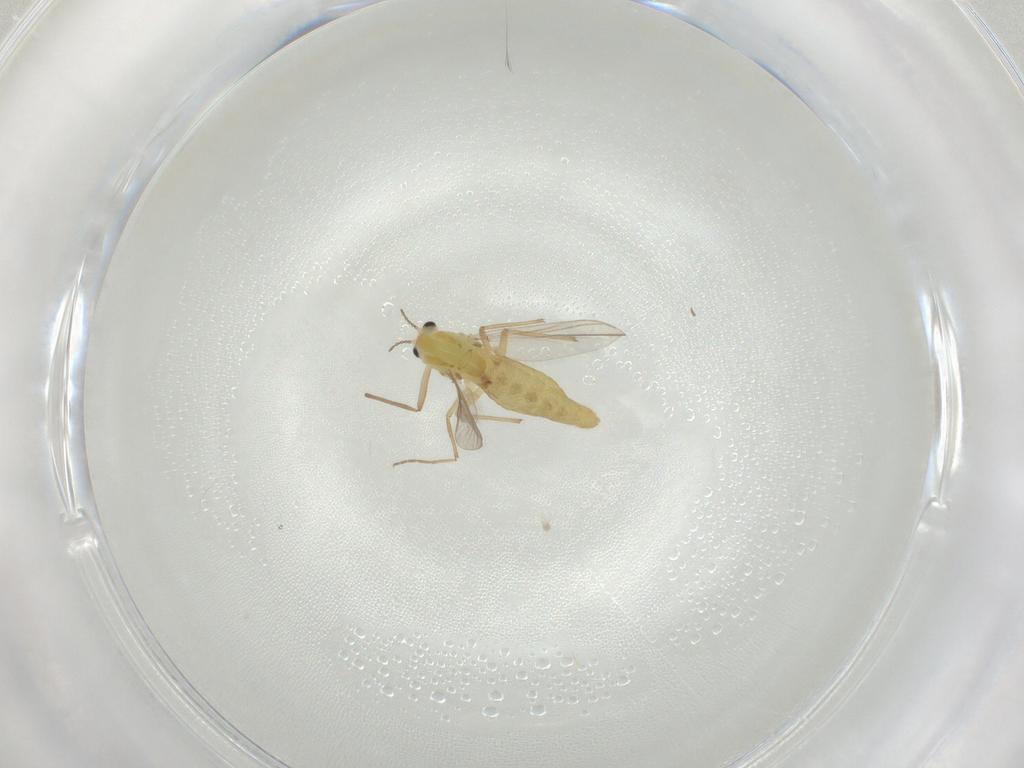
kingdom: Animalia
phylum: Arthropoda
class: Insecta
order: Diptera
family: Chironomidae
